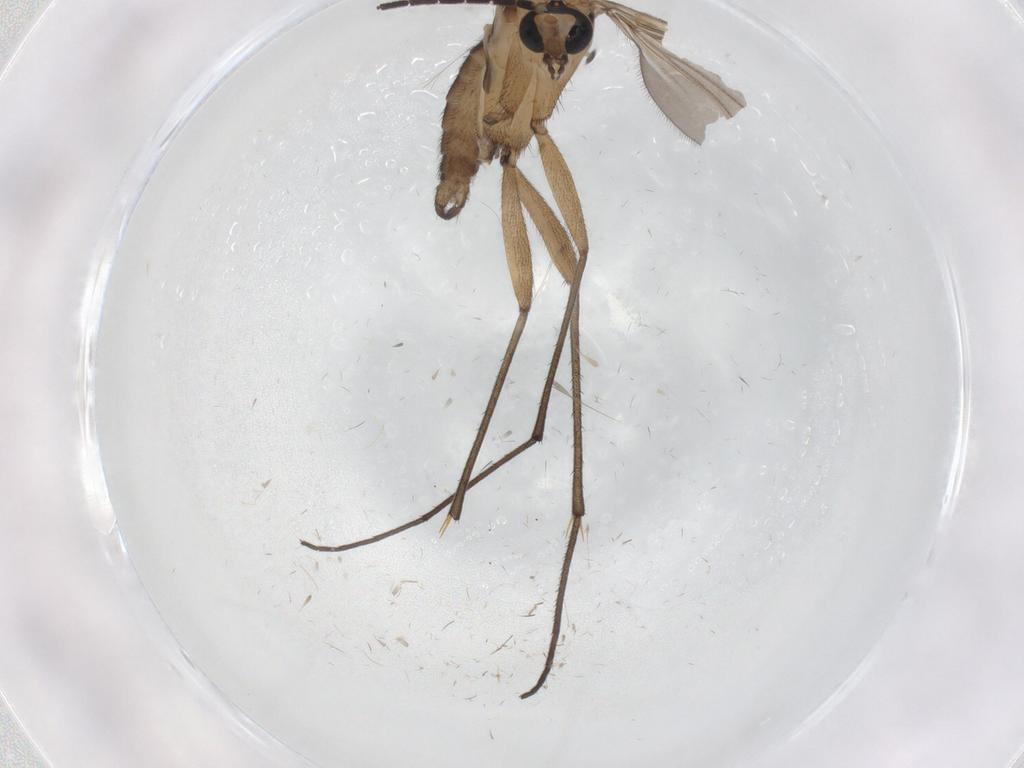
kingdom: Animalia
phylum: Arthropoda
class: Insecta
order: Diptera
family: Sciaridae
